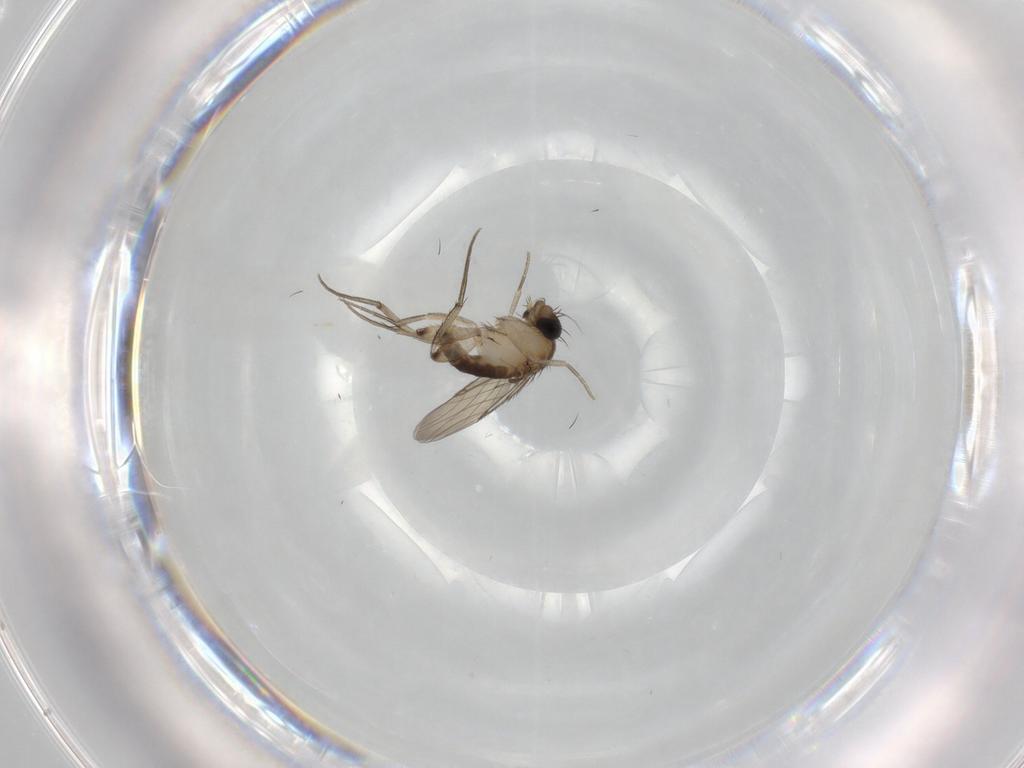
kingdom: Animalia
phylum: Arthropoda
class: Insecta
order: Diptera
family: Phoridae
